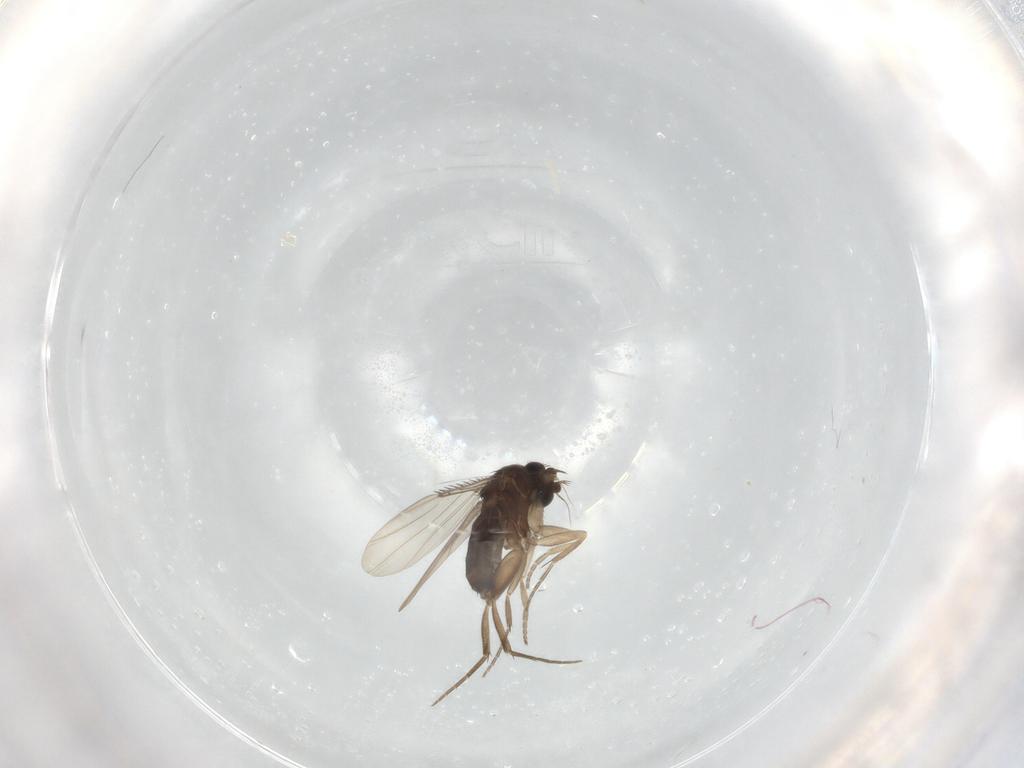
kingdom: Animalia
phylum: Arthropoda
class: Insecta
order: Diptera
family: Phoridae
